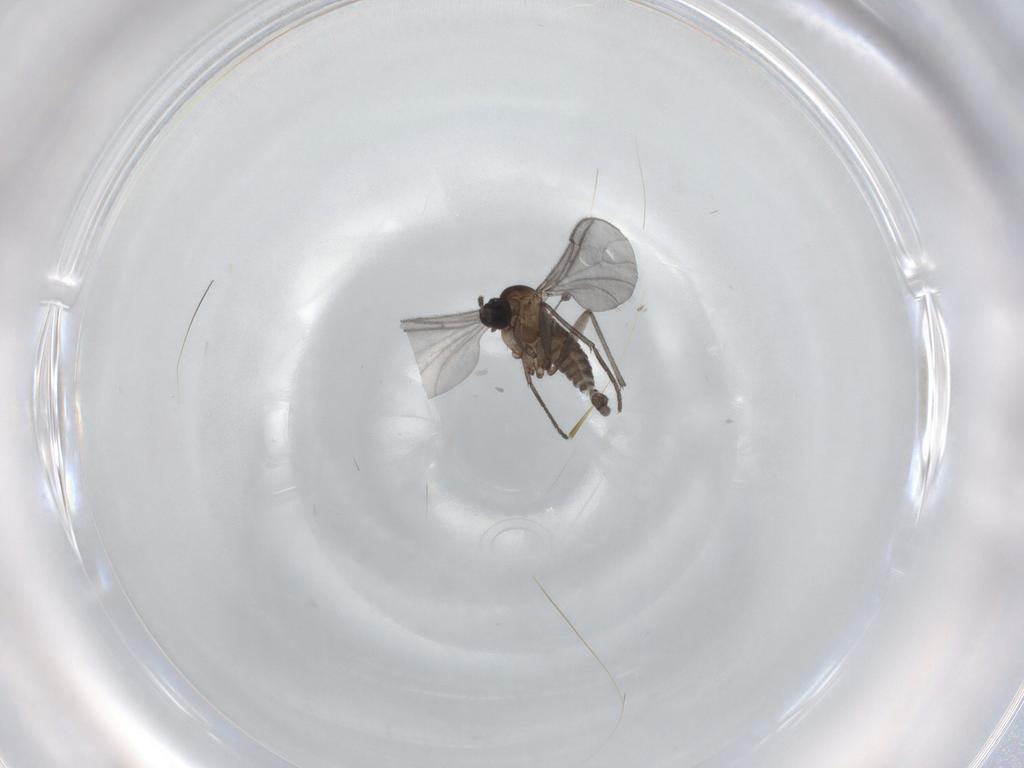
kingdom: Animalia
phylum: Arthropoda
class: Insecta
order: Diptera
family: Sciaridae
